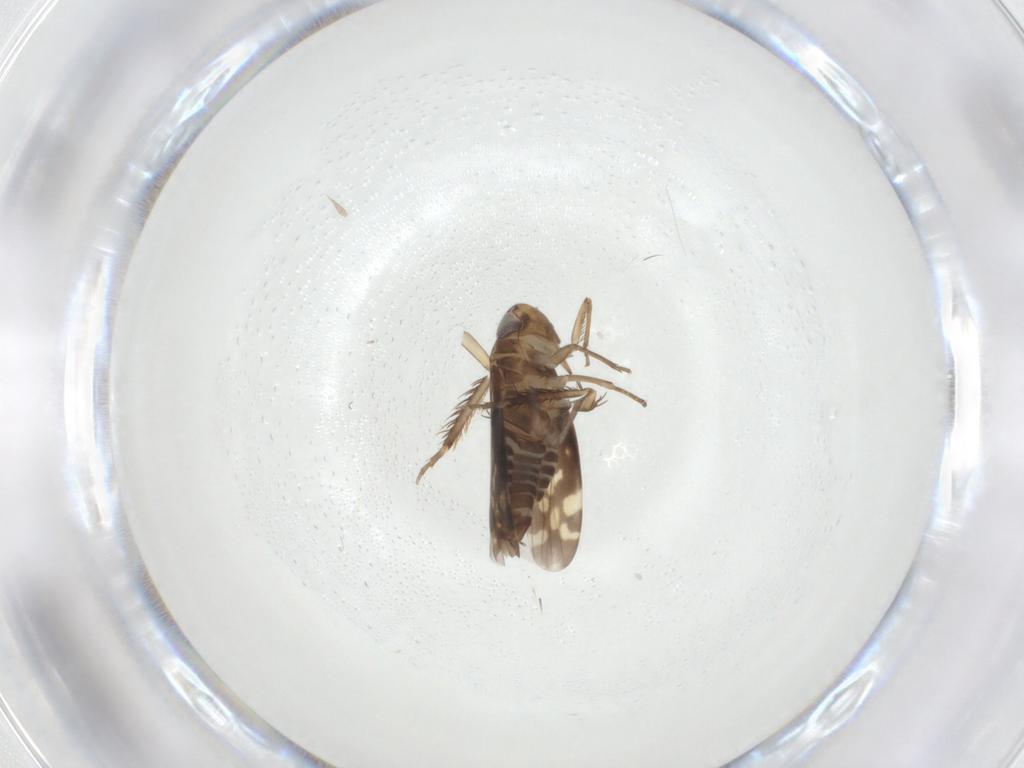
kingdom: Animalia
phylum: Arthropoda
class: Insecta
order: Hemiptera
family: Cicadellidae
